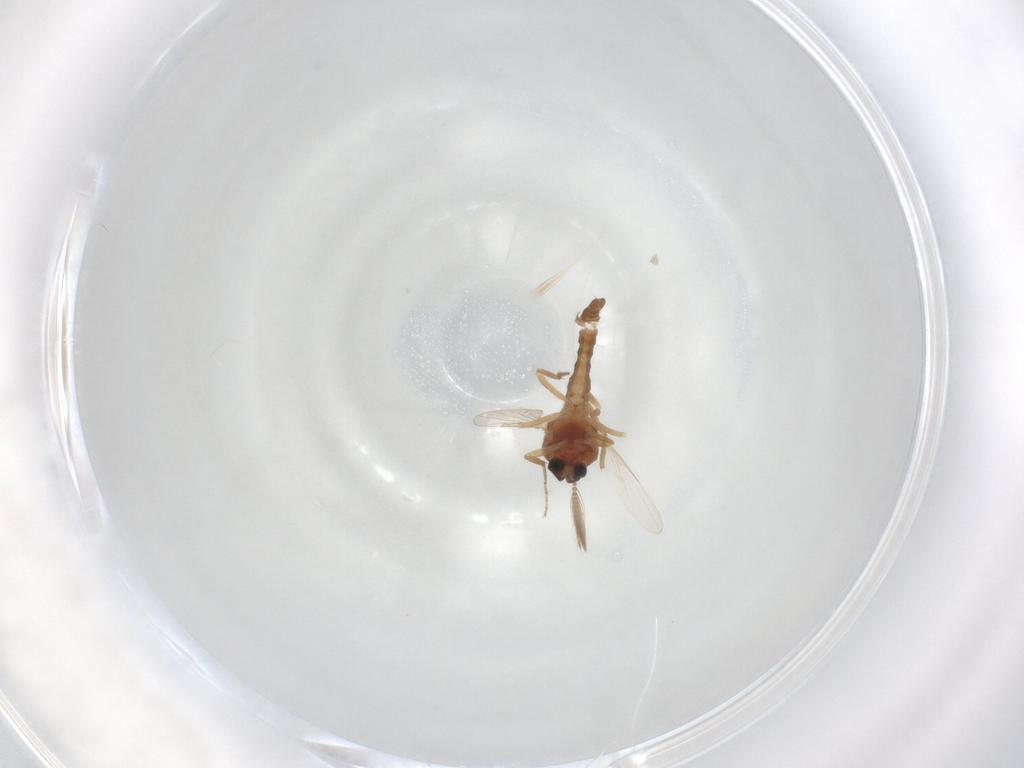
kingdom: Animalia
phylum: Arthropoda
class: Insecta
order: Diptera
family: Ceratopogonidae
